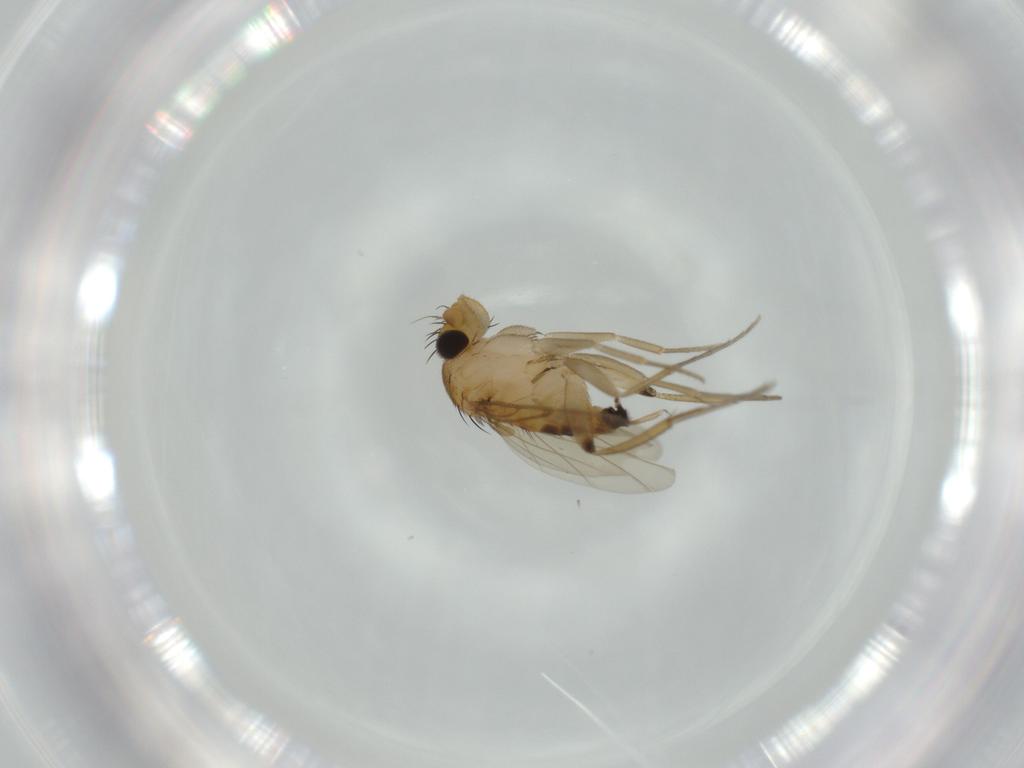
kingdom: Animalia
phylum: Arthropoda
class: Insecta
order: Diptera
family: Phoridae
